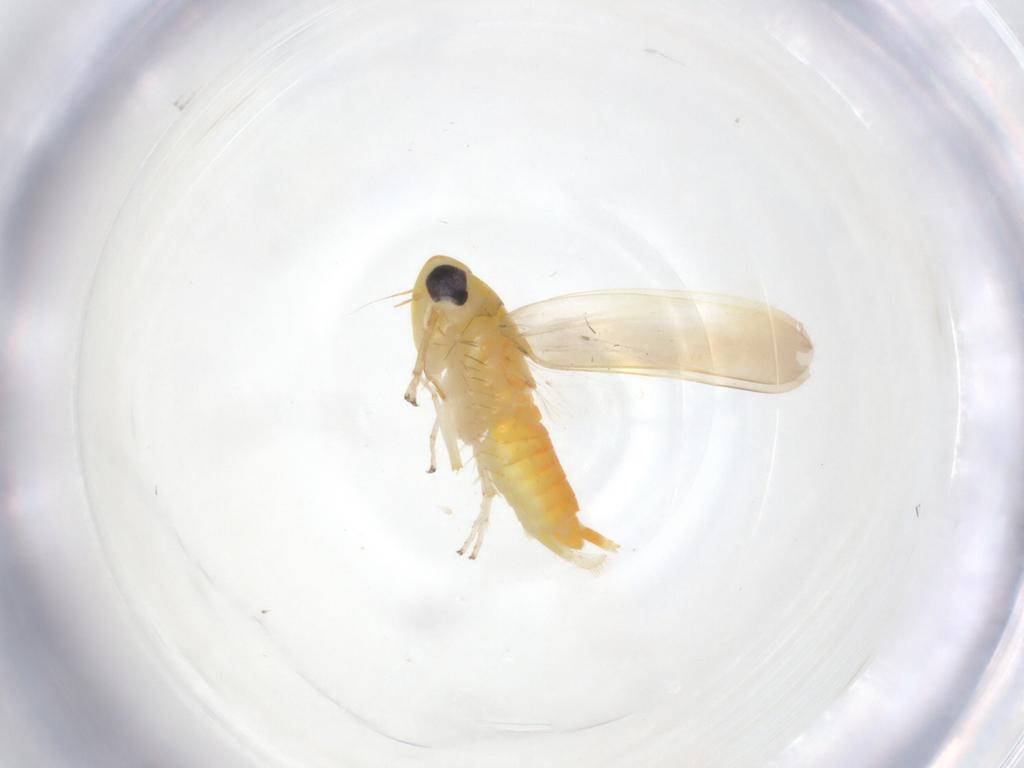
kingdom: Animalia
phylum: Arthropoda
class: Insecta
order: Hemiptera
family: Cicadellidae
